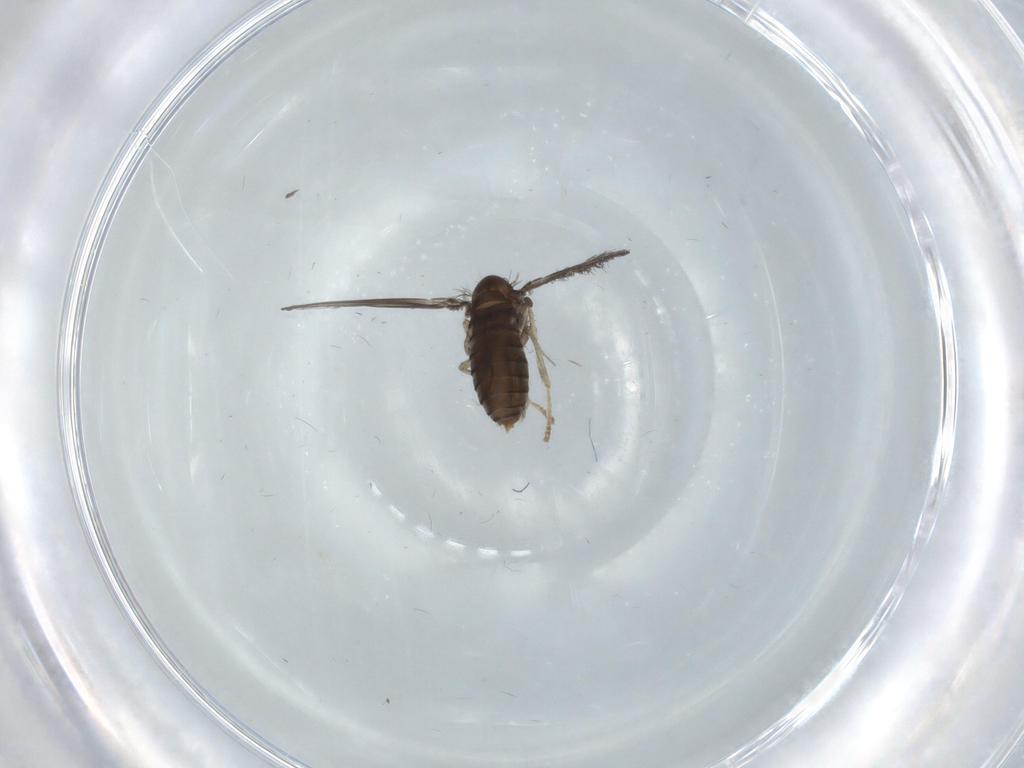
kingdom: Animalia
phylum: Arthropoda
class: Insecta
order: Diptera
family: Psychodidae
